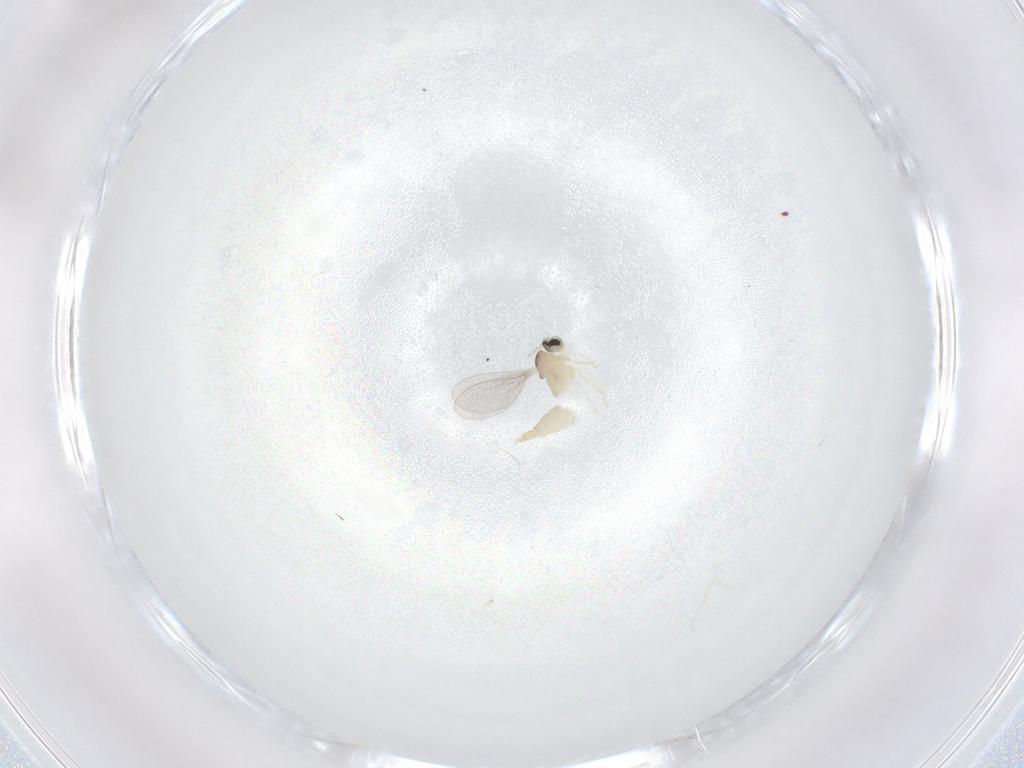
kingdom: Animalia
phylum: Arthropoda
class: Insecta
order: Diptera
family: Cecidomyiidae
